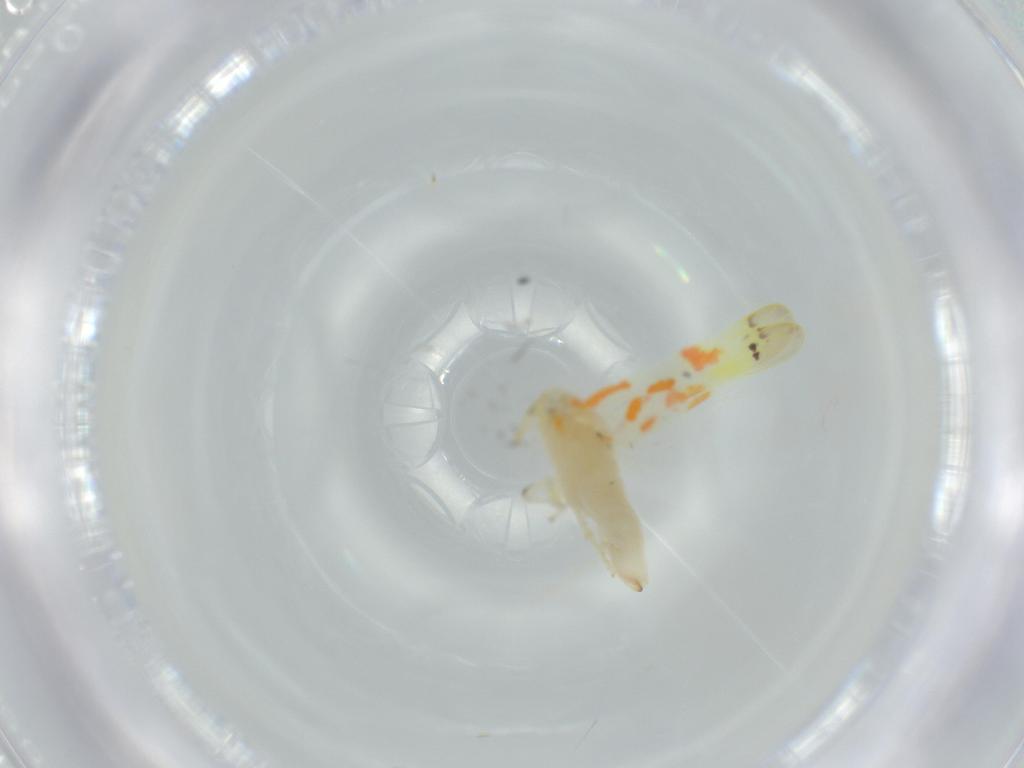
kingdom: Animalia
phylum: Arthropoda
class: Insecta
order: Hemiptera
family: Cicadellidae
